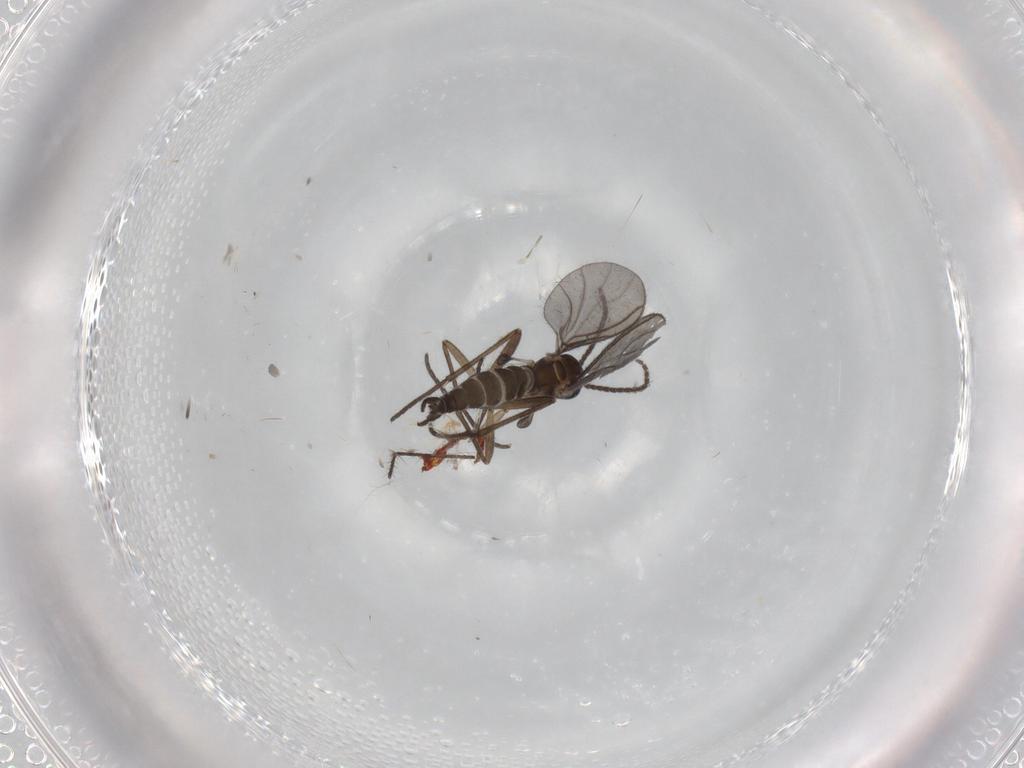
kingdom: Animalia
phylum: Arthropoda
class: Insecta
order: Diptera
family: Sciaridae
